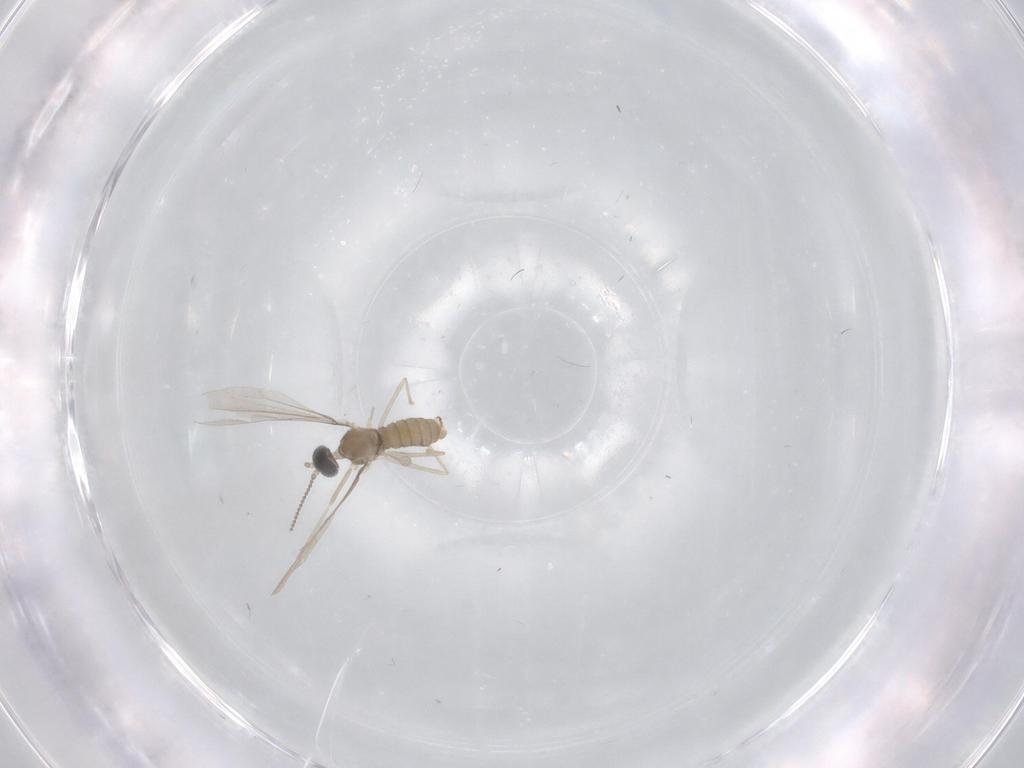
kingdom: Animalia
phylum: Arthropoda
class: Insecta
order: Diptera
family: Cecidomyiidae
